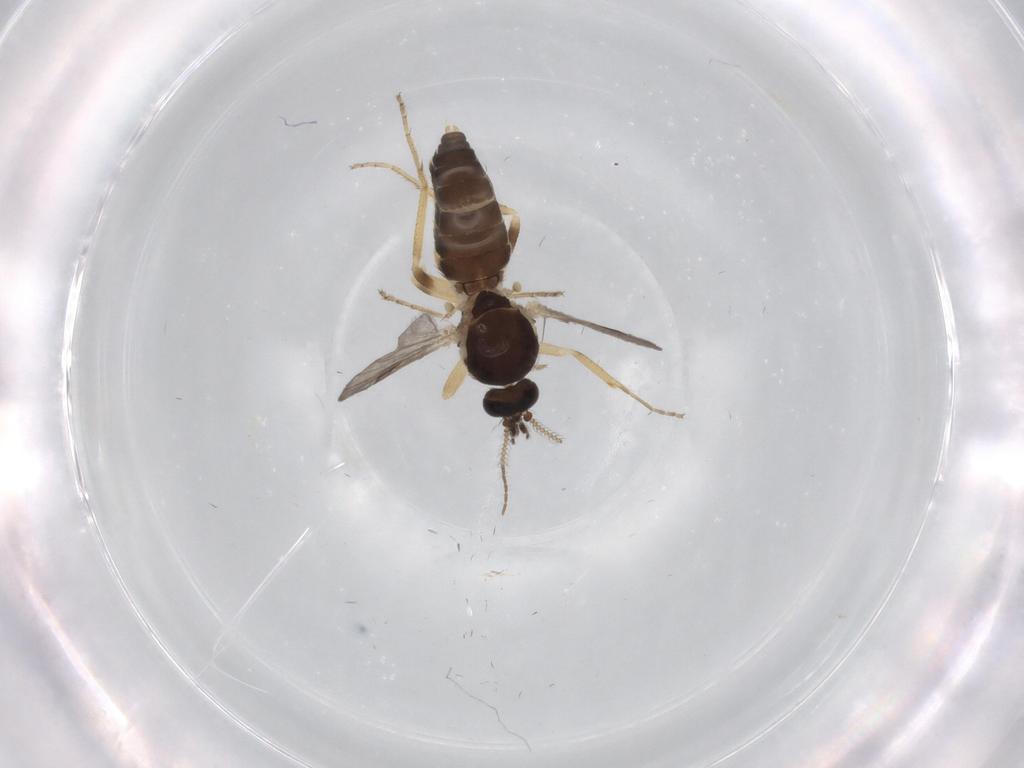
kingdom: Animalia
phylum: Arthropoda
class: Insecta
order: Diptera
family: Ceratopogonidae
